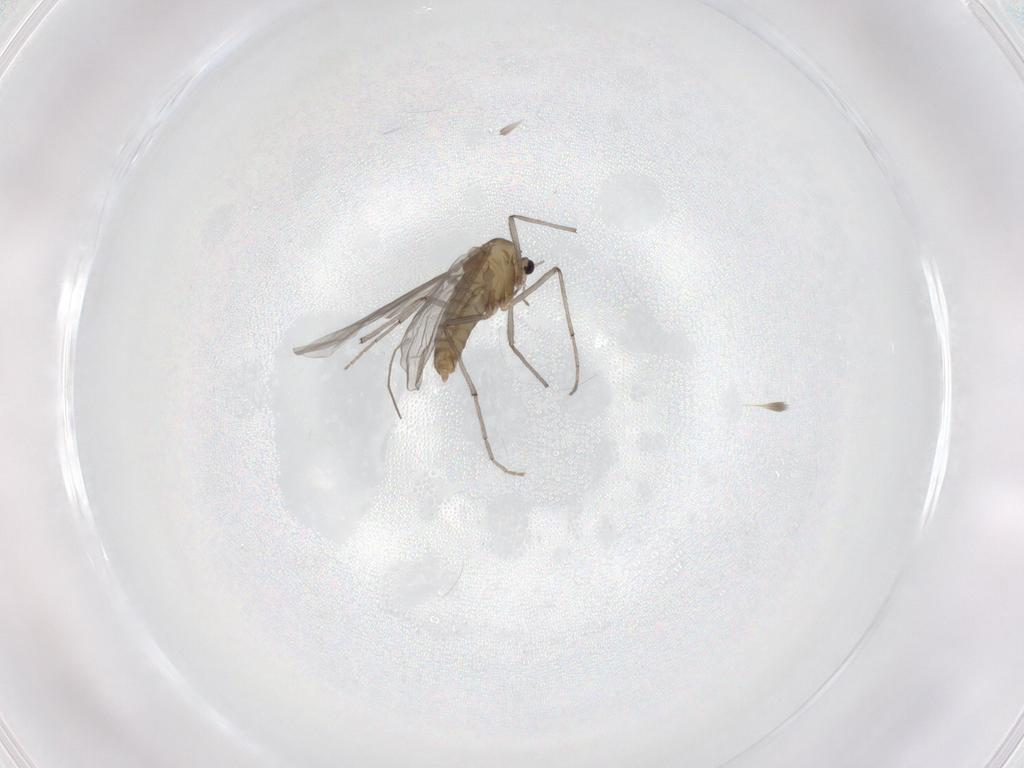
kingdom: Animalia
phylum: Arthropoda
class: Insecta
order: Diptera
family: Chironomidae
